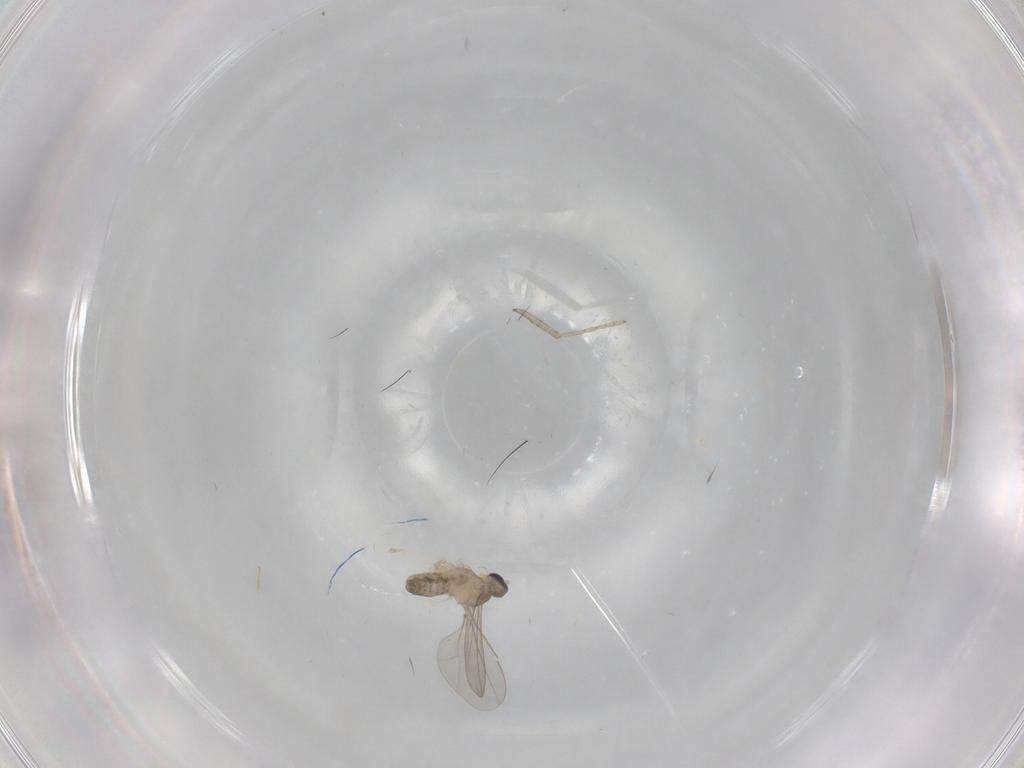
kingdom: Animalia
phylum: Arthropoda
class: Insecta
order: Diptera
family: Cecidomyiidae
